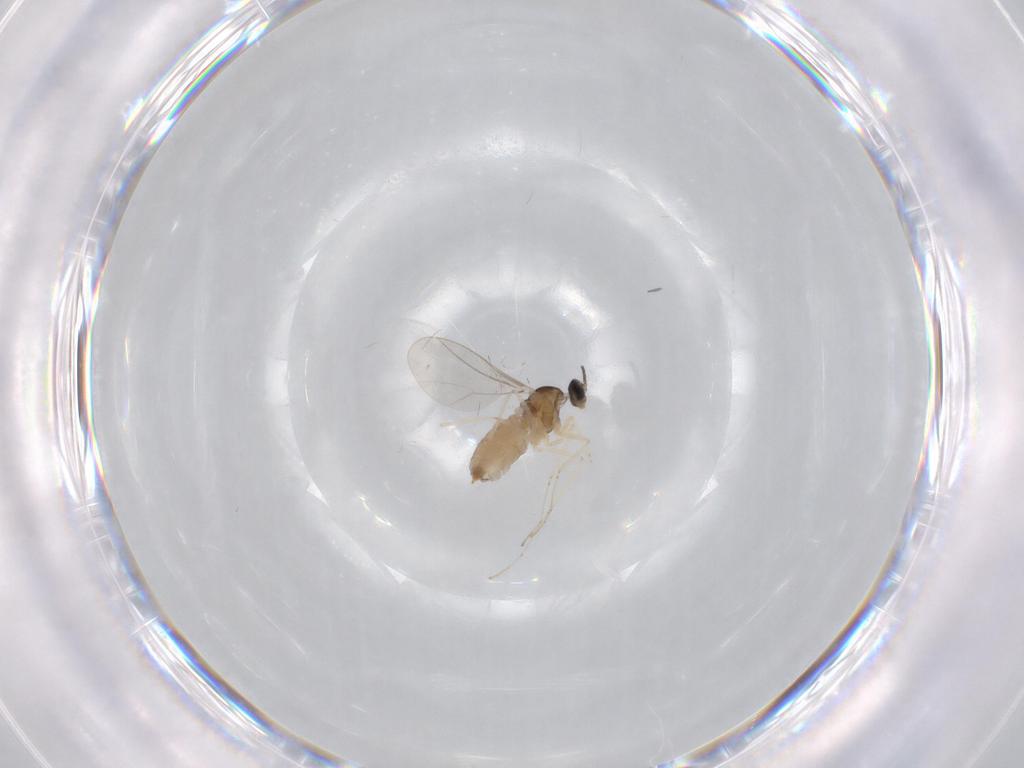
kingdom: Animalia
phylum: Arthropoda
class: Insecta
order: Diptera
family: Cecidomyiidae
